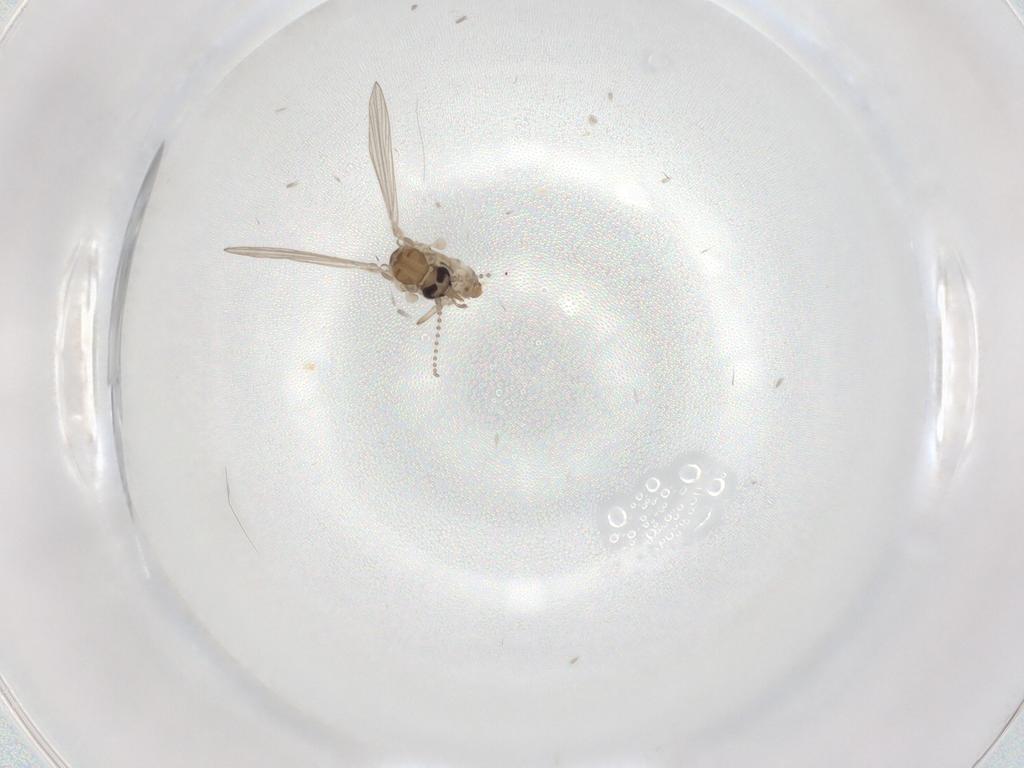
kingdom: Animalia
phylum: Arthropoda
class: Insecta
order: Diptera
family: Psychodidae
